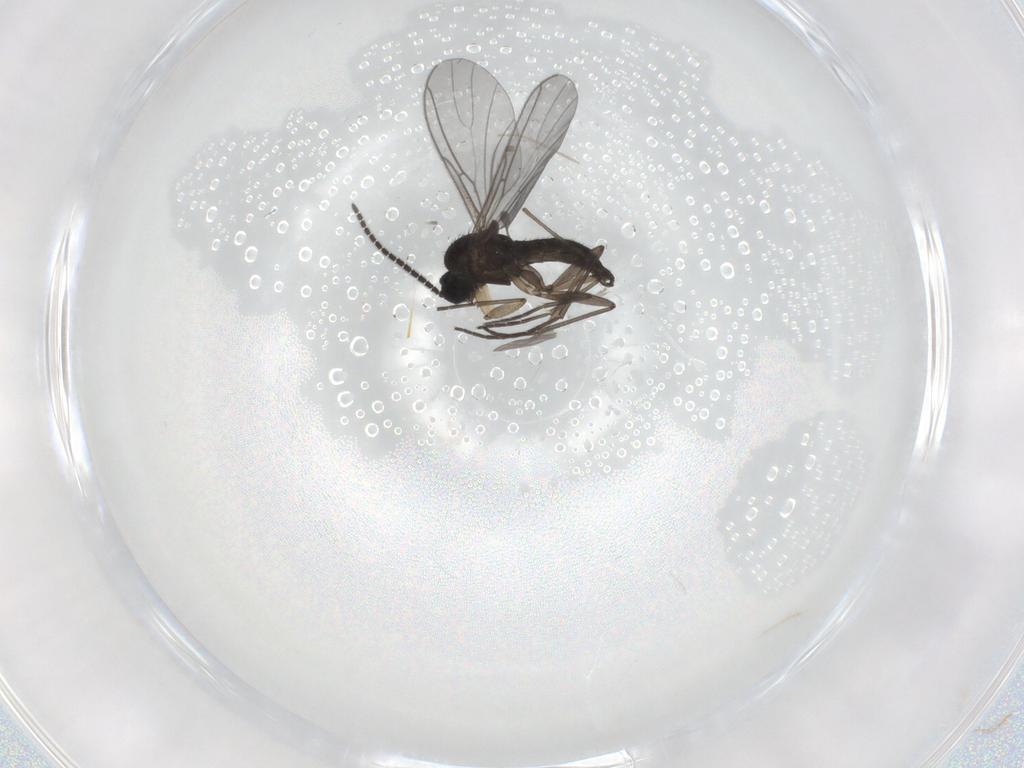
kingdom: Animalia
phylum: Arthropoda
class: Insecta
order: Diptera
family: Sciaridae
